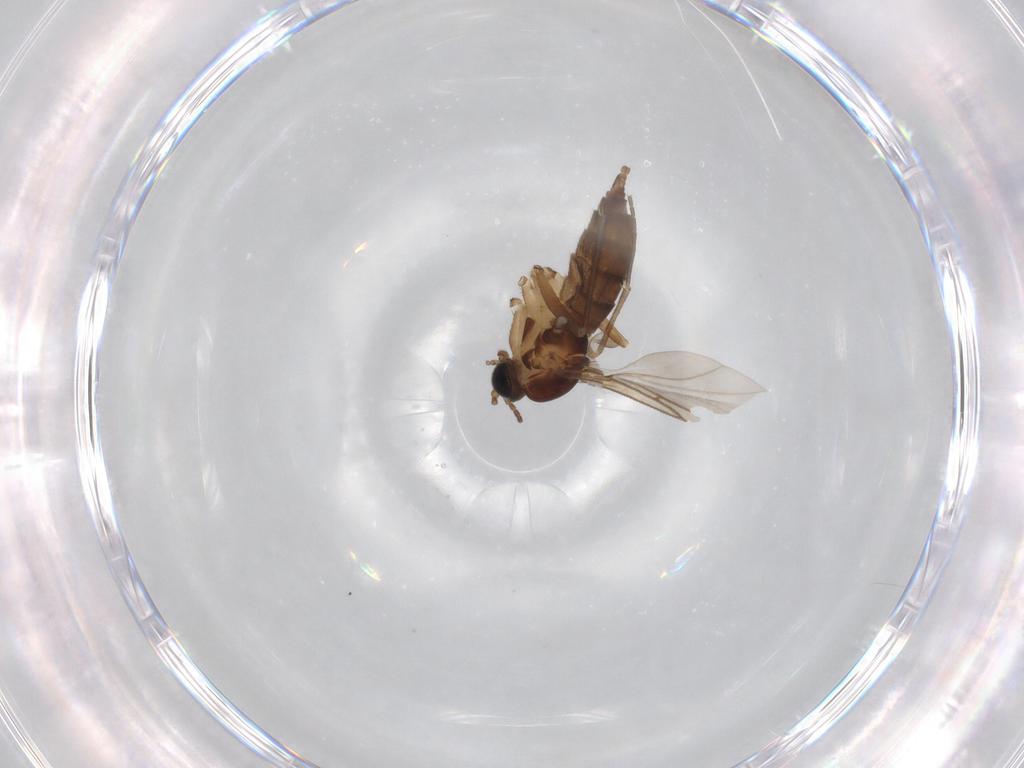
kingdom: Animalia
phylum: Arthropoda
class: Insecta
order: Diptera
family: Sciaridae
